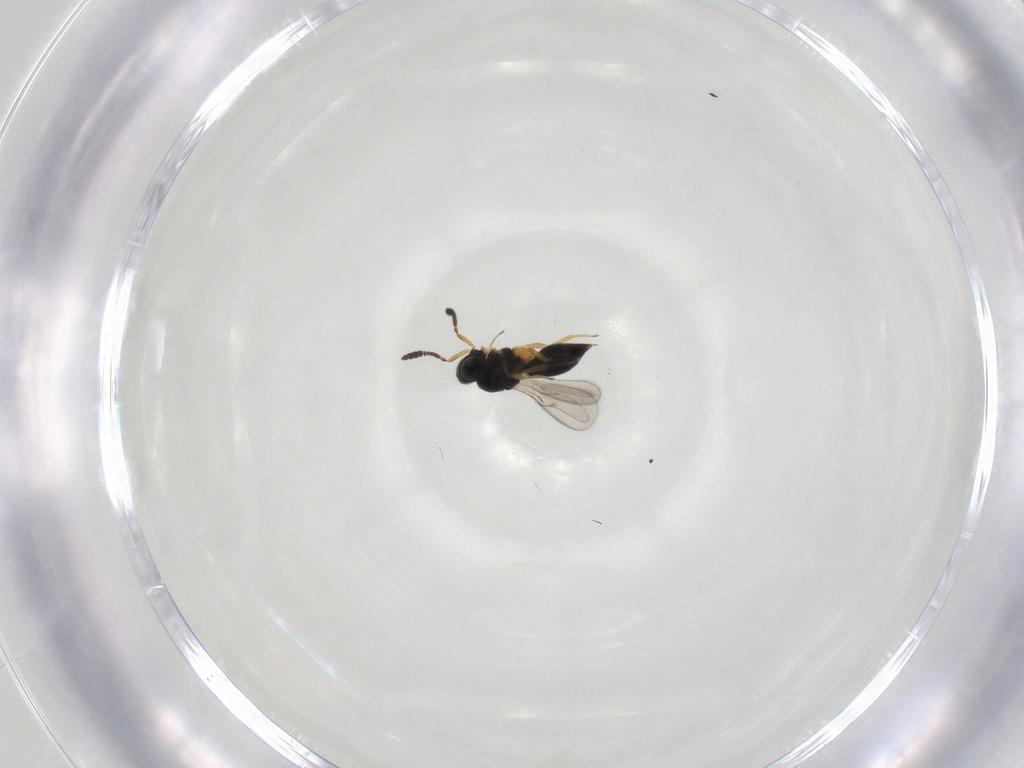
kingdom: Animalia
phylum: Arthropoda
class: Insecta
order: Hymenoptera
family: Scelionidae
